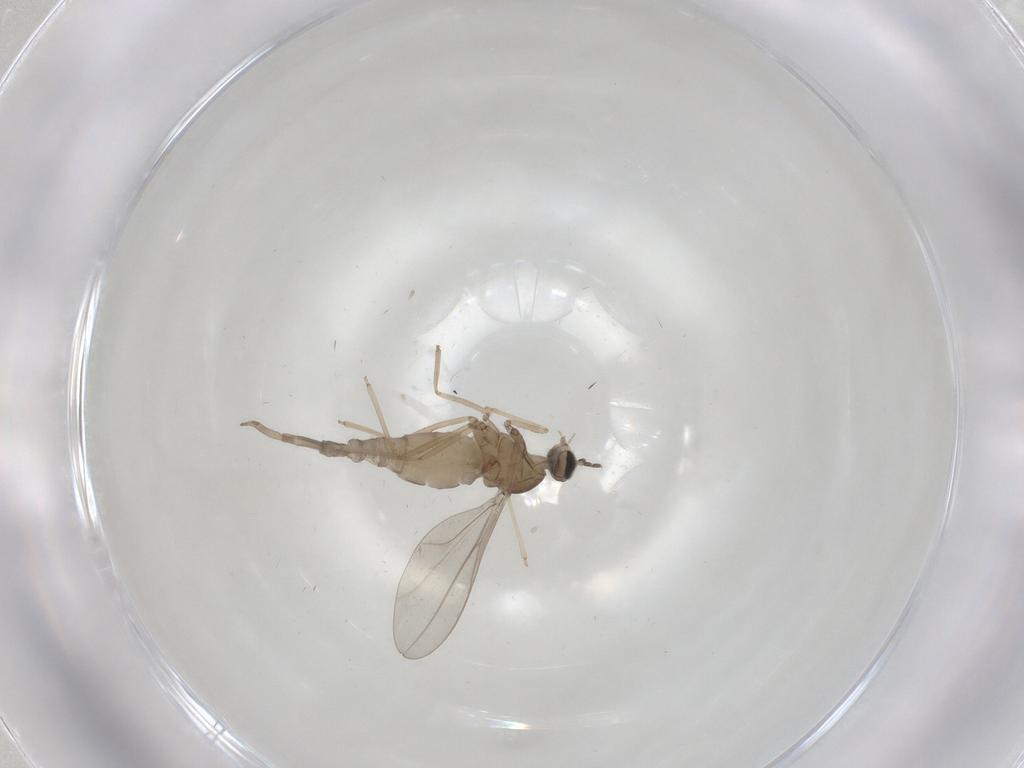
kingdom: Animalia
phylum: Arthropoda
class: Insecta
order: Diptera
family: Cecidomyiidae
